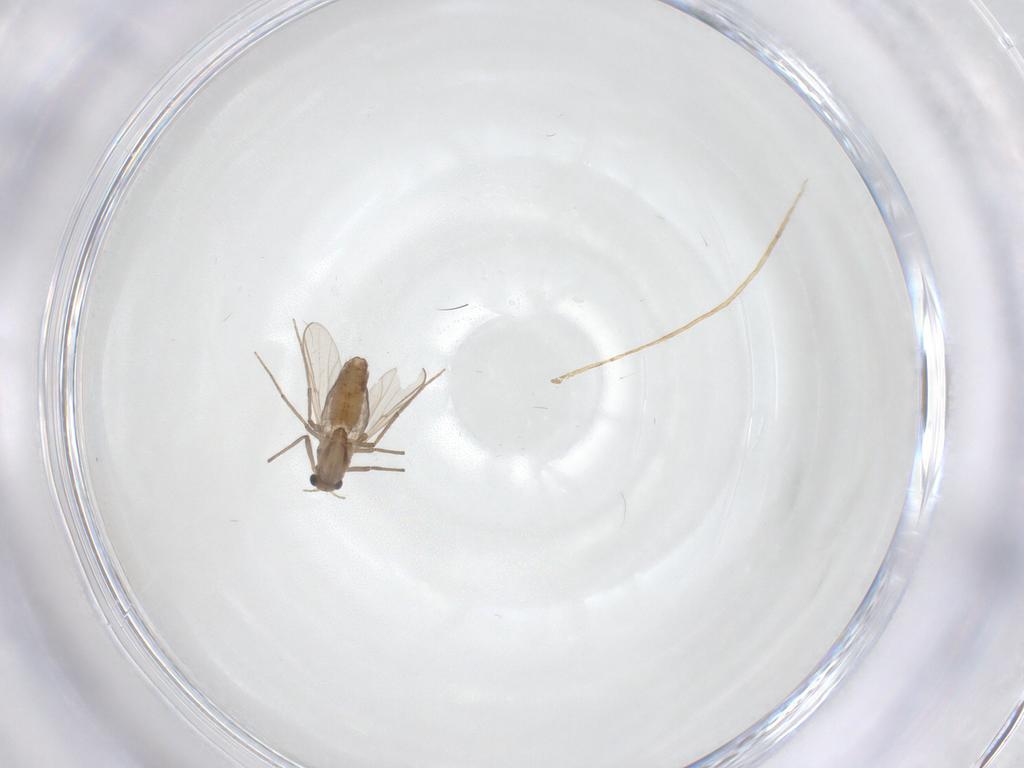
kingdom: Animalia
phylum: Arthropoda
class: Insecta
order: Diptera
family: Chironomidae
